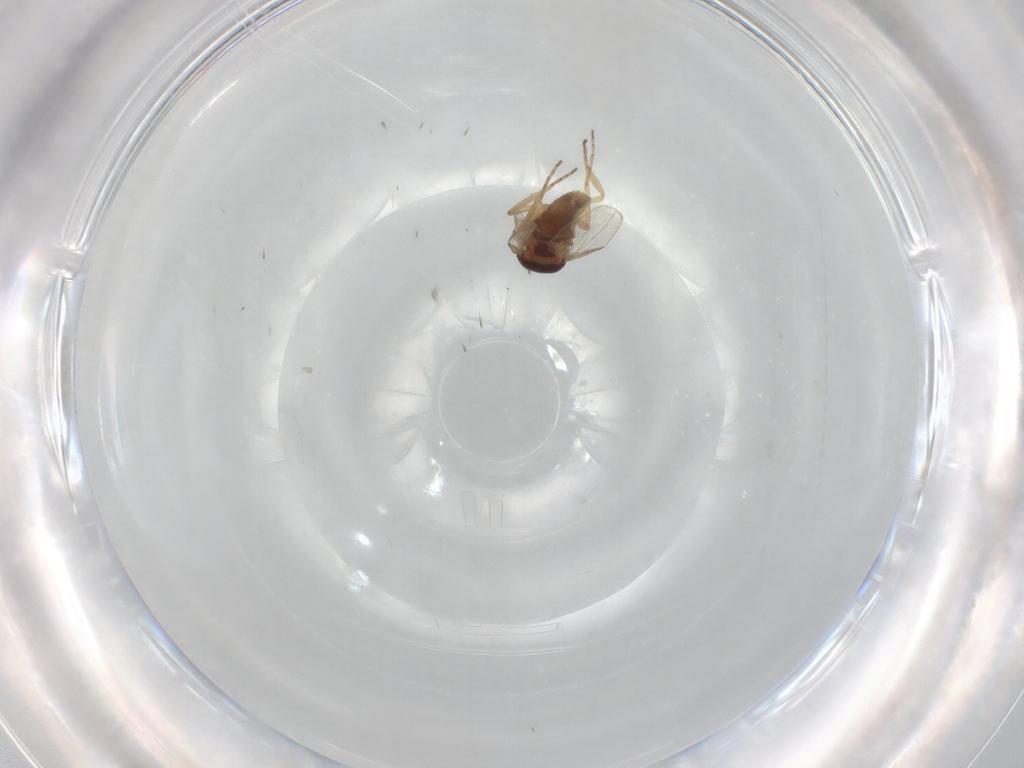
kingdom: Animalia
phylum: Arthropoda
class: Insecta
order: Diptera
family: Ceratopogonidae
